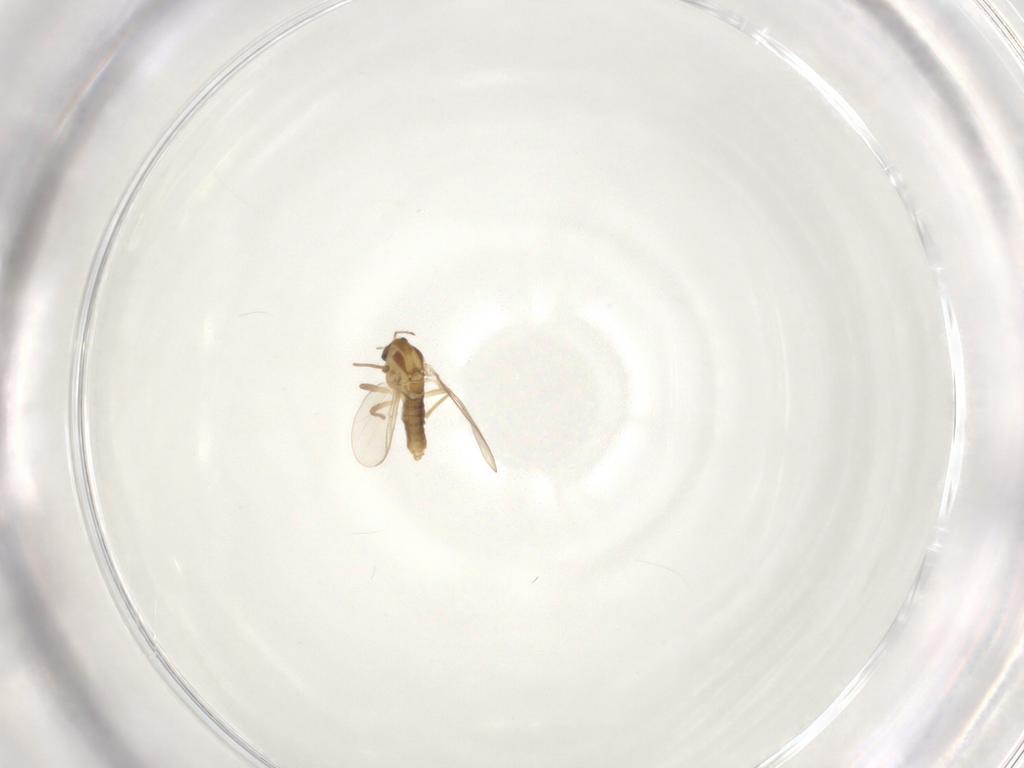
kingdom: Animalia
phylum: Arthropoda
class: Insecta
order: Diptera
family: Chironomidae
